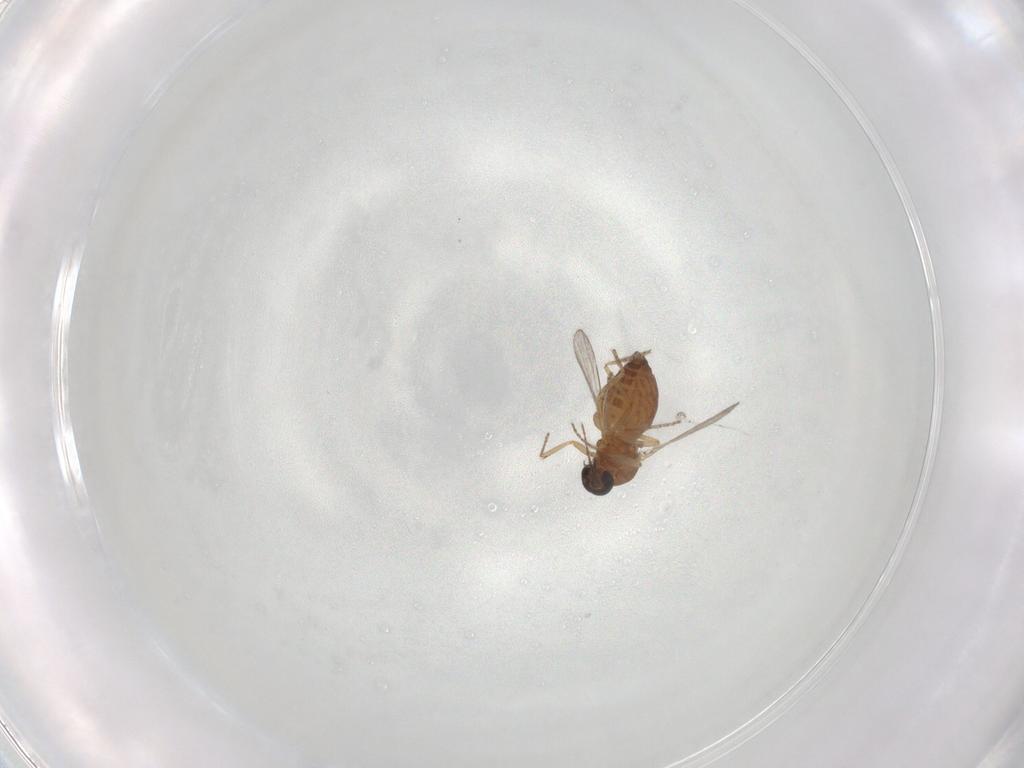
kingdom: Animalia
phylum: Arthropoda
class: Insecta
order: Diptera
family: Ceratopogonidae
